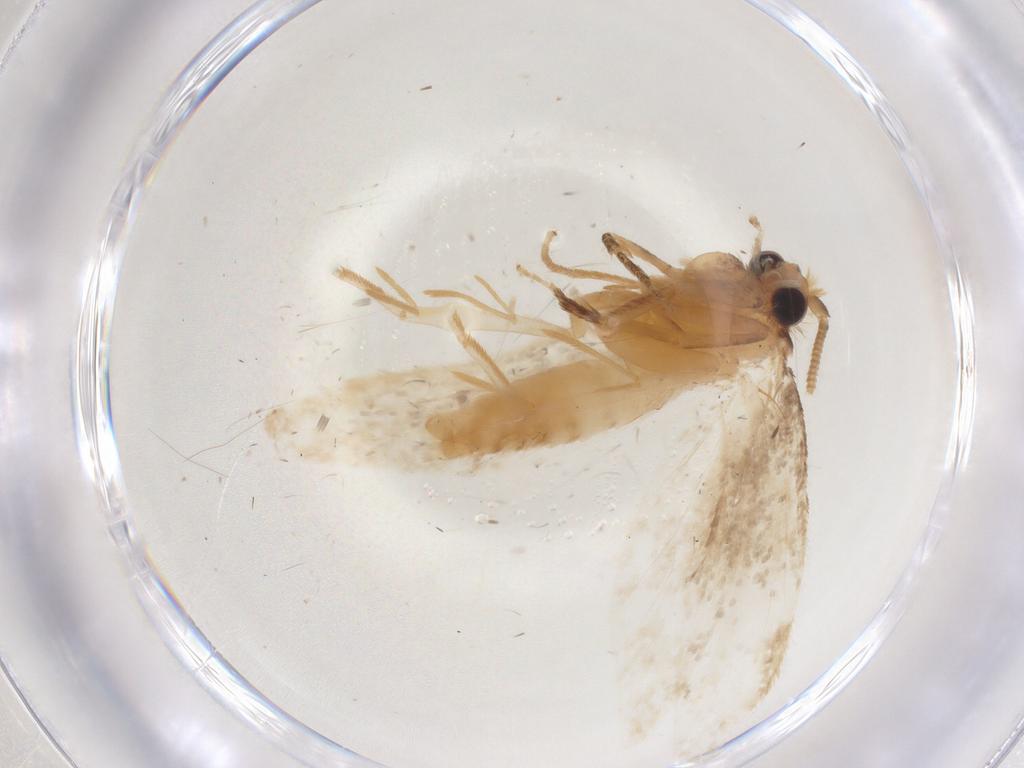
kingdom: Animalia
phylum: Arthropoda
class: Insecta
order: Lepidoptera
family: Tineidae
